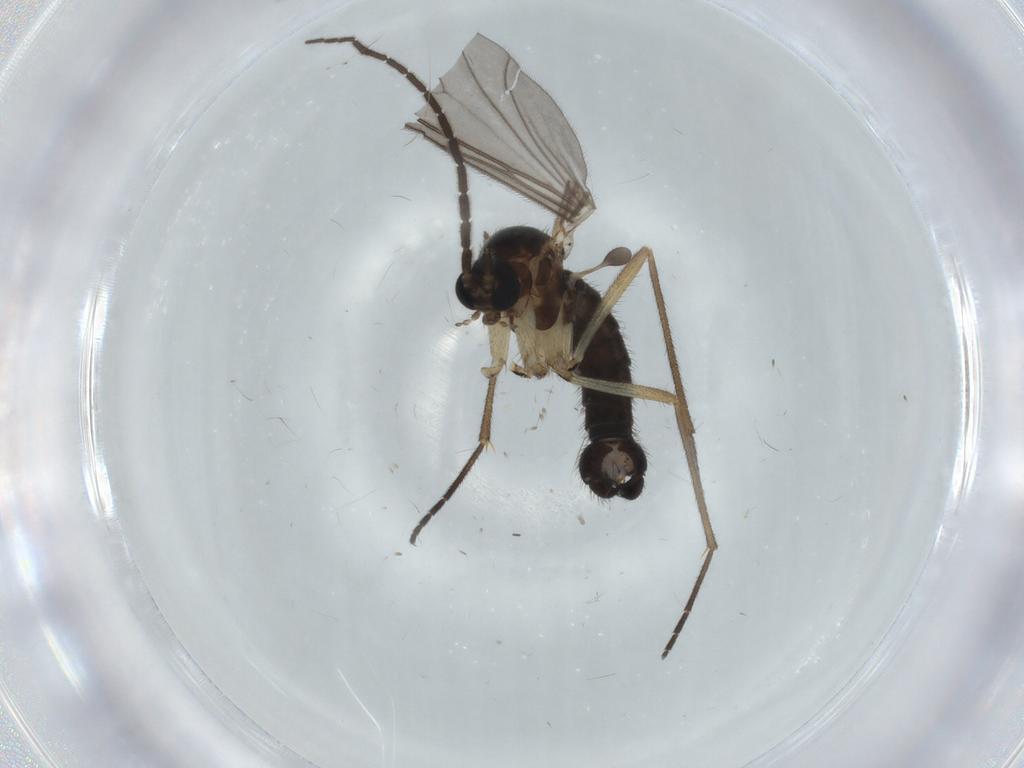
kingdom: Animalia
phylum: Arthropoda
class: Insecta
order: Diptera
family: Sciaridae
